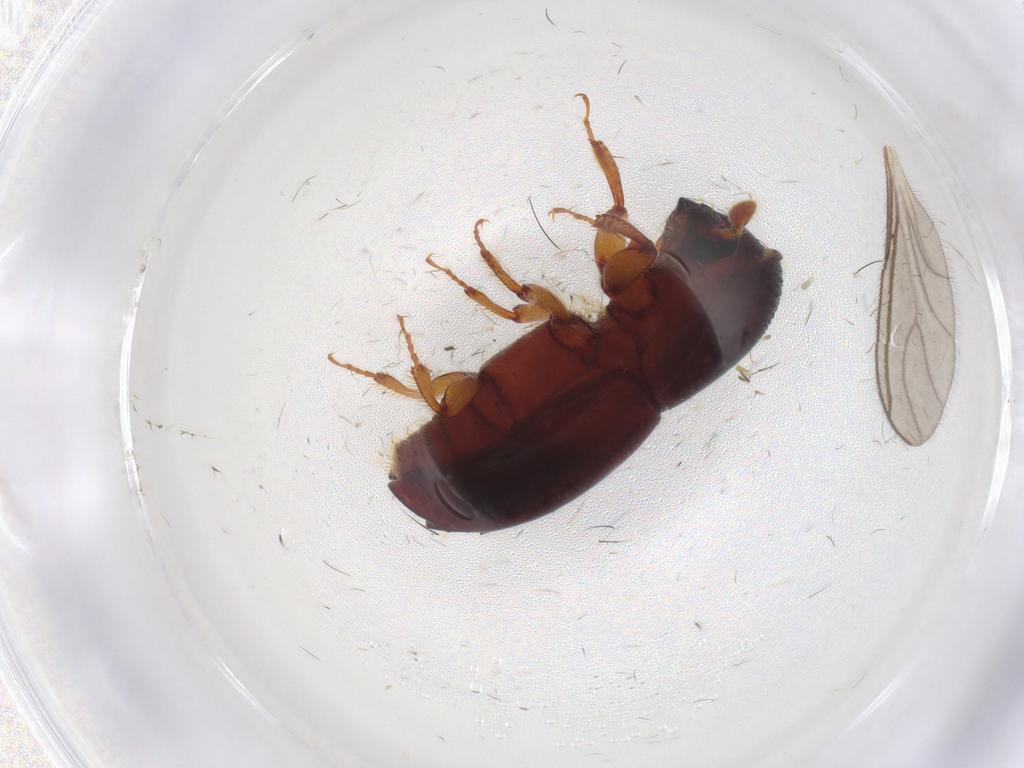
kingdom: Animalia
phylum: Arthropoda
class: Insecta
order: Coleoptera
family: Curculionidae
